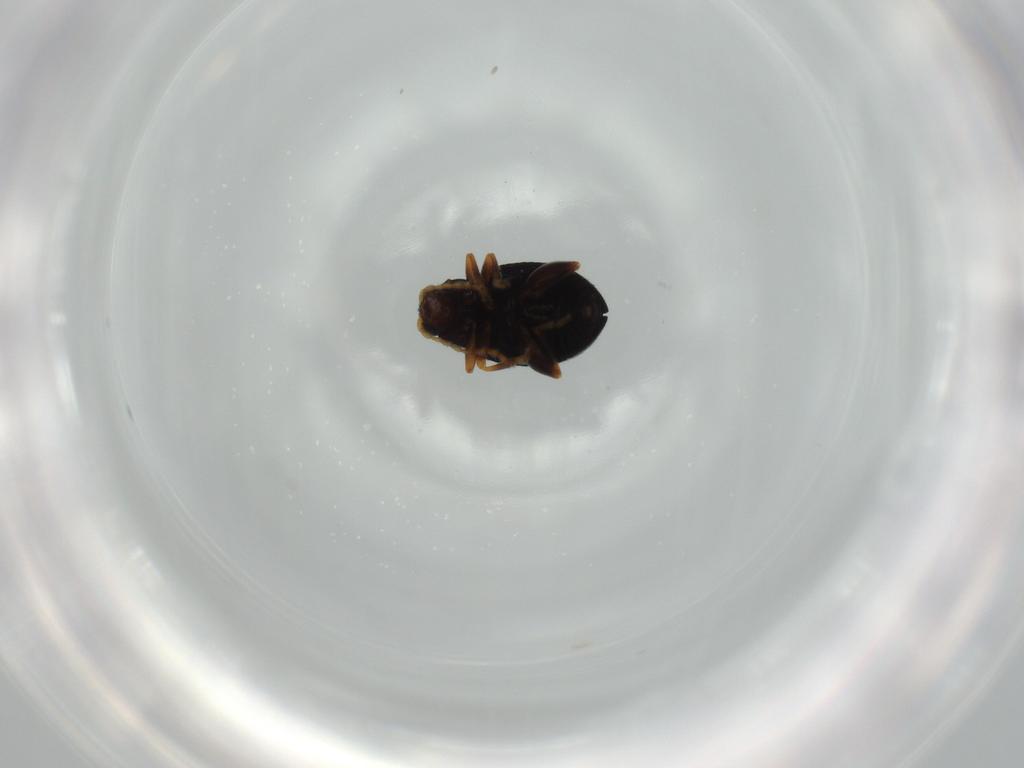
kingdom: Animalia
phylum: Arthropoda
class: Insecta
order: Coleoptera
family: Chrysomelidae
